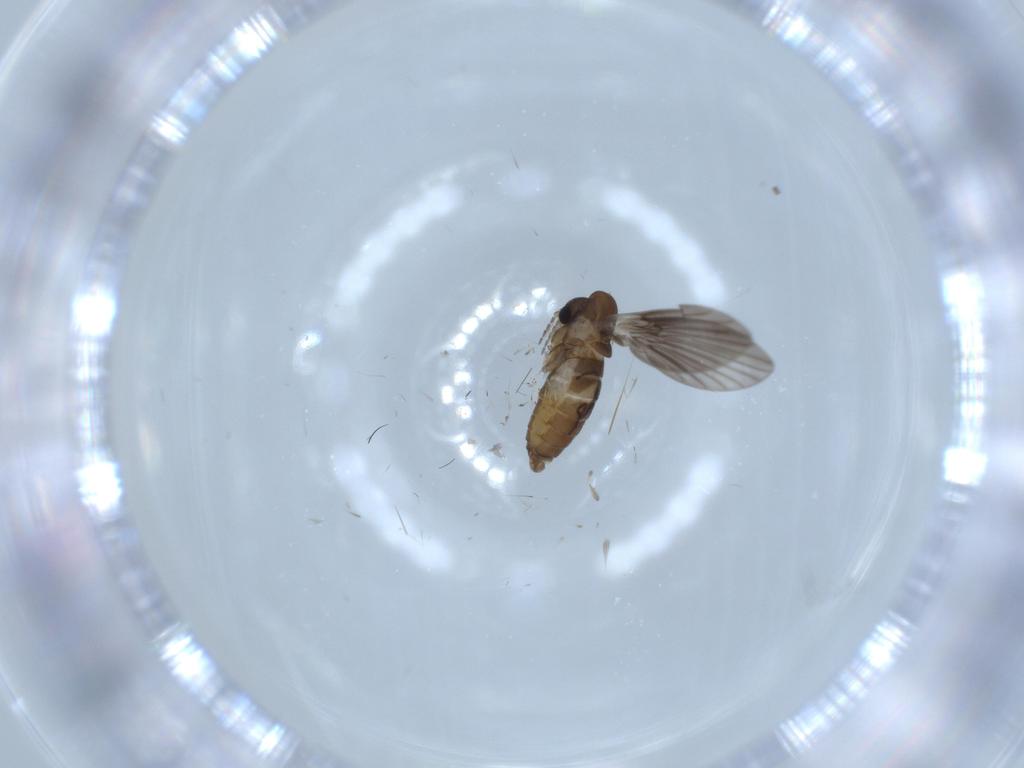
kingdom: Animalia
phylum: Arthropoda
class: Insecta
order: Diptera
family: Psychodidae
